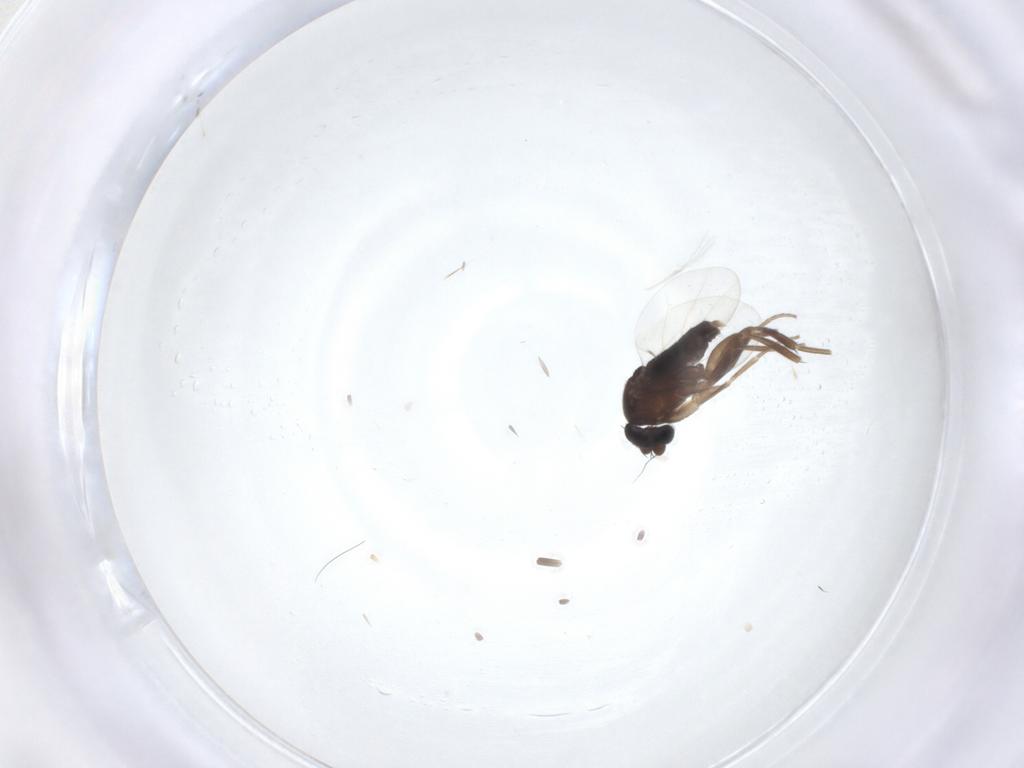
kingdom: Animalia
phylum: Arthropoda
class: Insecta
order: Diptera
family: Phoridae
